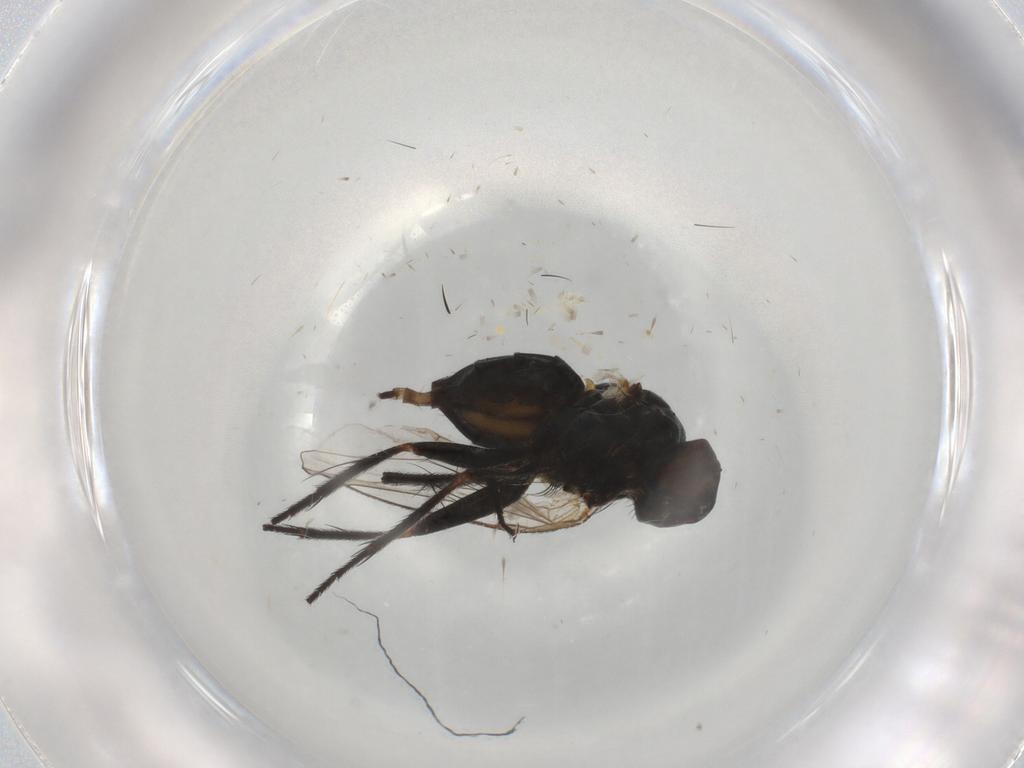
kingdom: Animalia
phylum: Arthropoda
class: Insecta
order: Diptera
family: Muscidae
